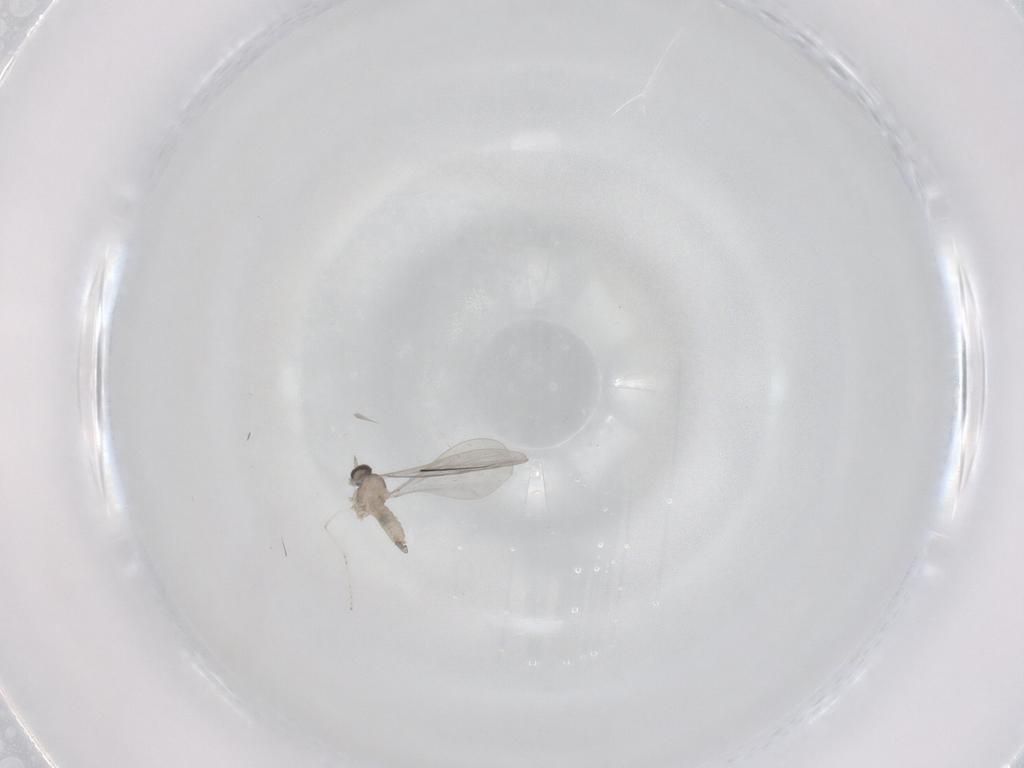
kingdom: Animalia
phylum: Arthropoda
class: Insecta
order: Diptera
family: Cecidomyiidae
